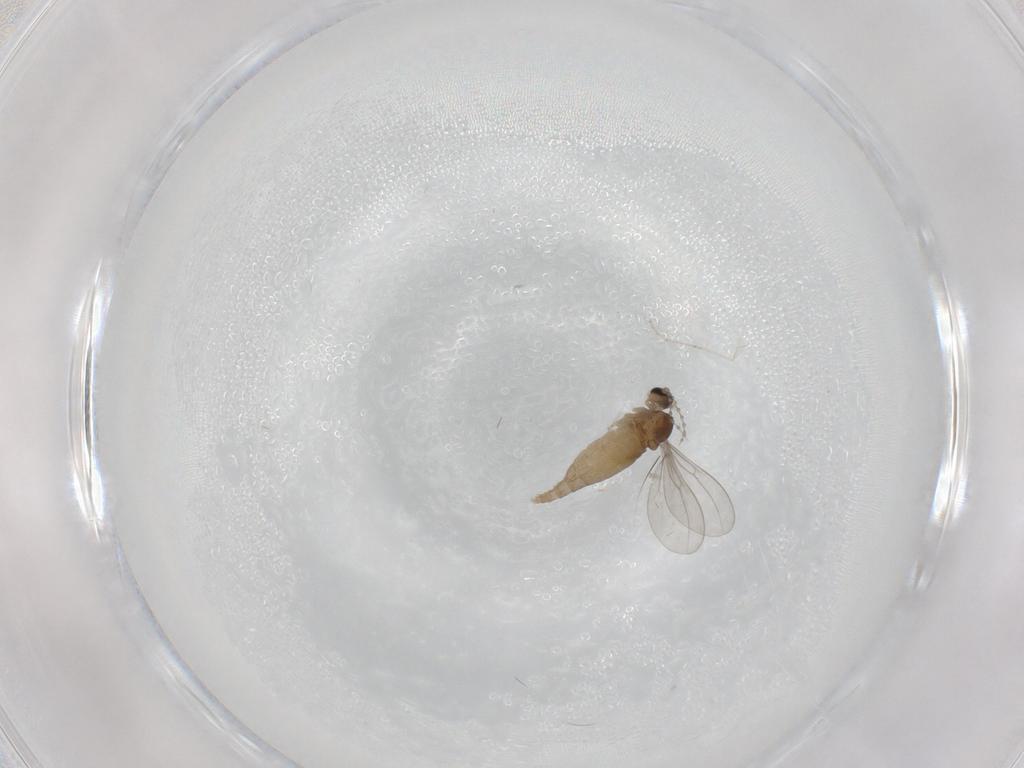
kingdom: Animalia
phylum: Arthropoda
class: Insecta
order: Diptera
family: Cecidomyiidae
